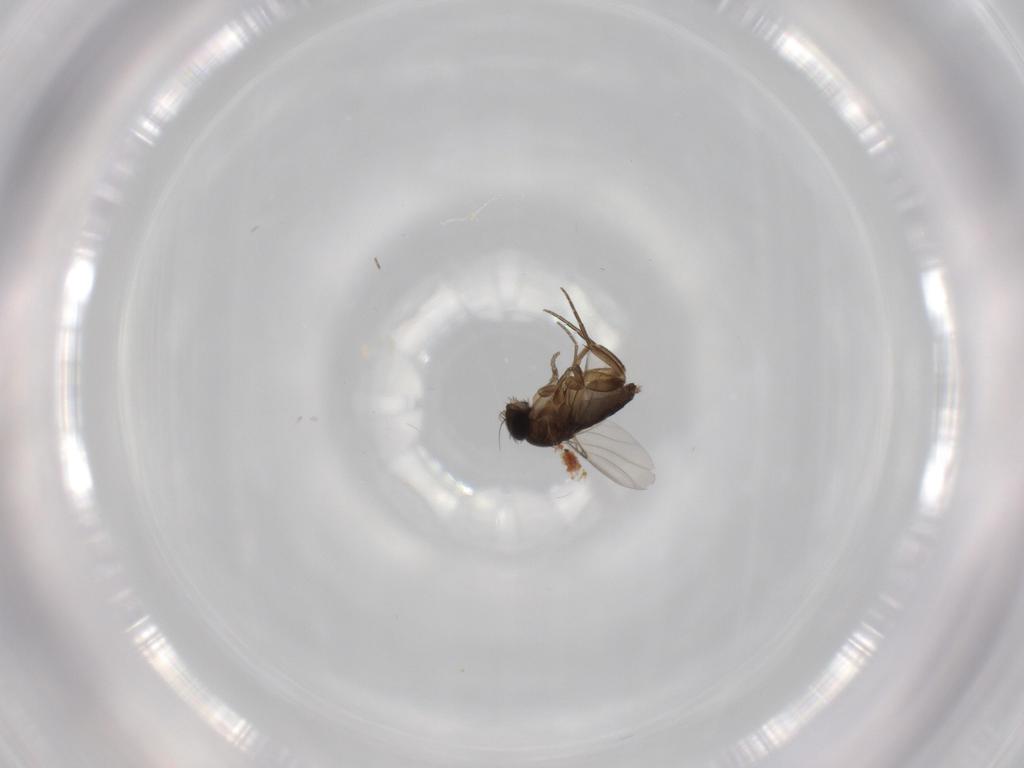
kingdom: Animalia
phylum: Arthropoda
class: Insecta
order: Diptera
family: Phoridae
